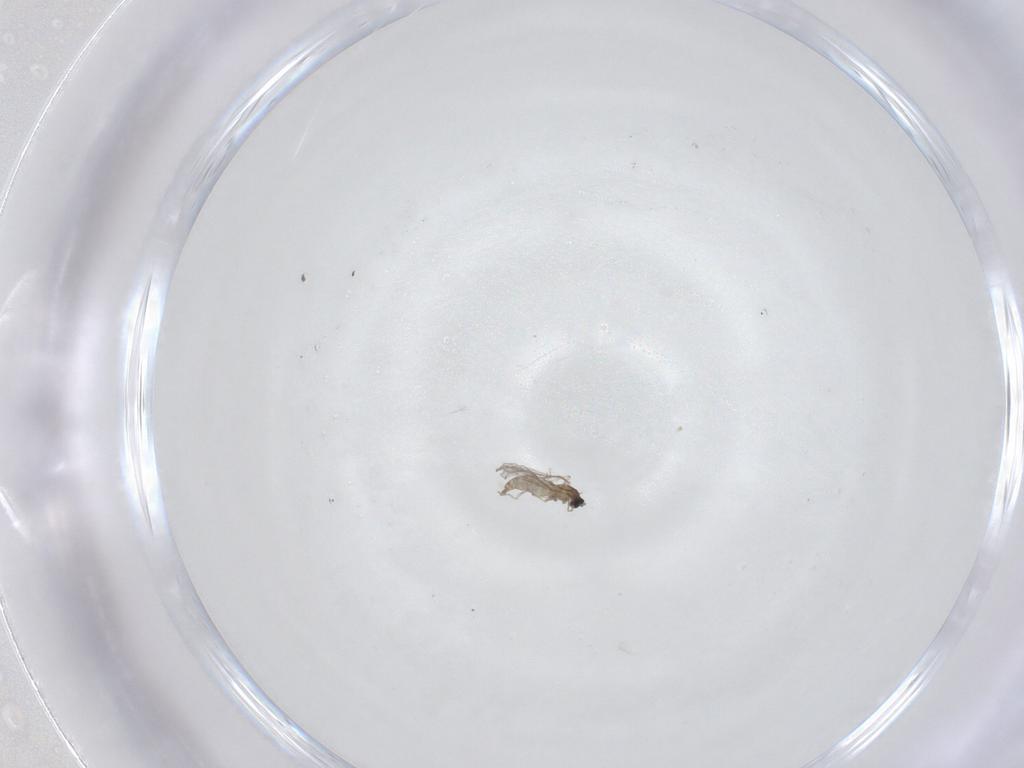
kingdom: Animalia
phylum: Arthropoda
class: Insecta
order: Diptera
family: Cecidomyiidae
